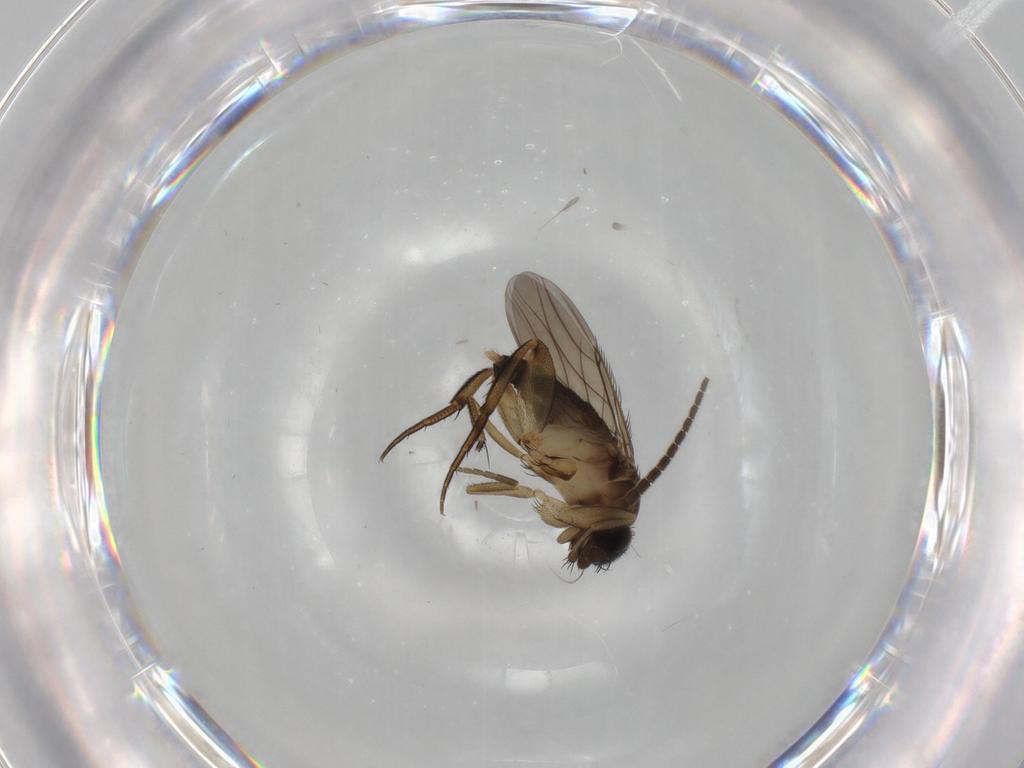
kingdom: Animalia
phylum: Arthropoda
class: Insecta
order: Diptera
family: Phoridae
